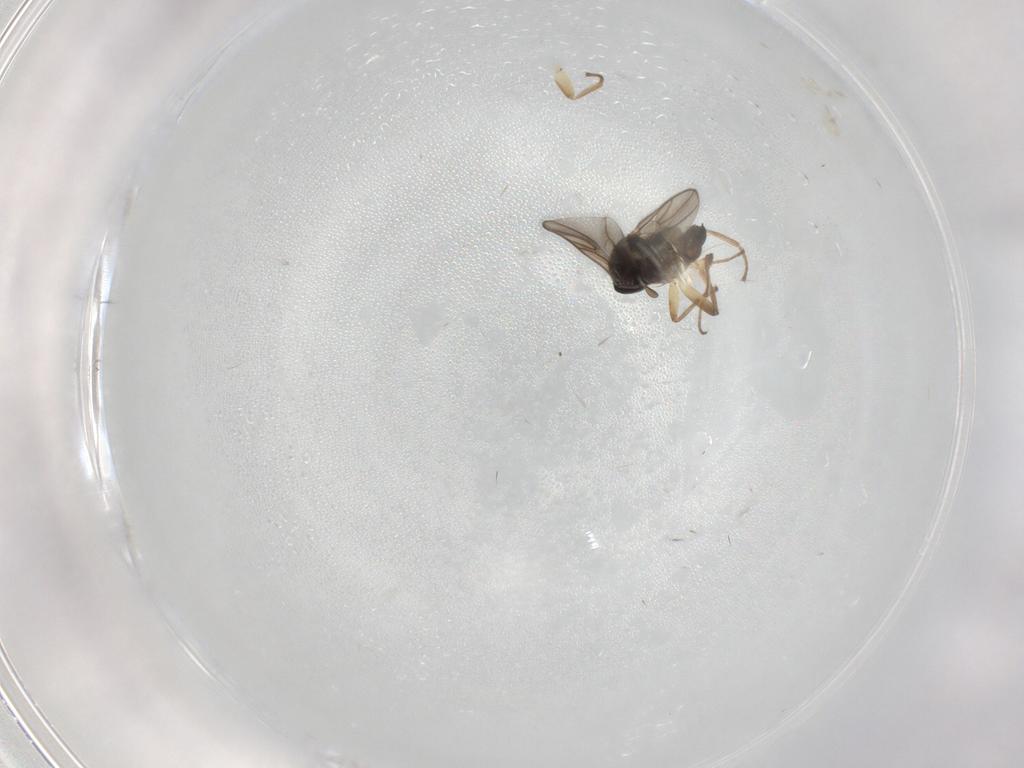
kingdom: Animalia
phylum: Arthropoda
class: Insecta
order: Diptera
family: Hybotidae
